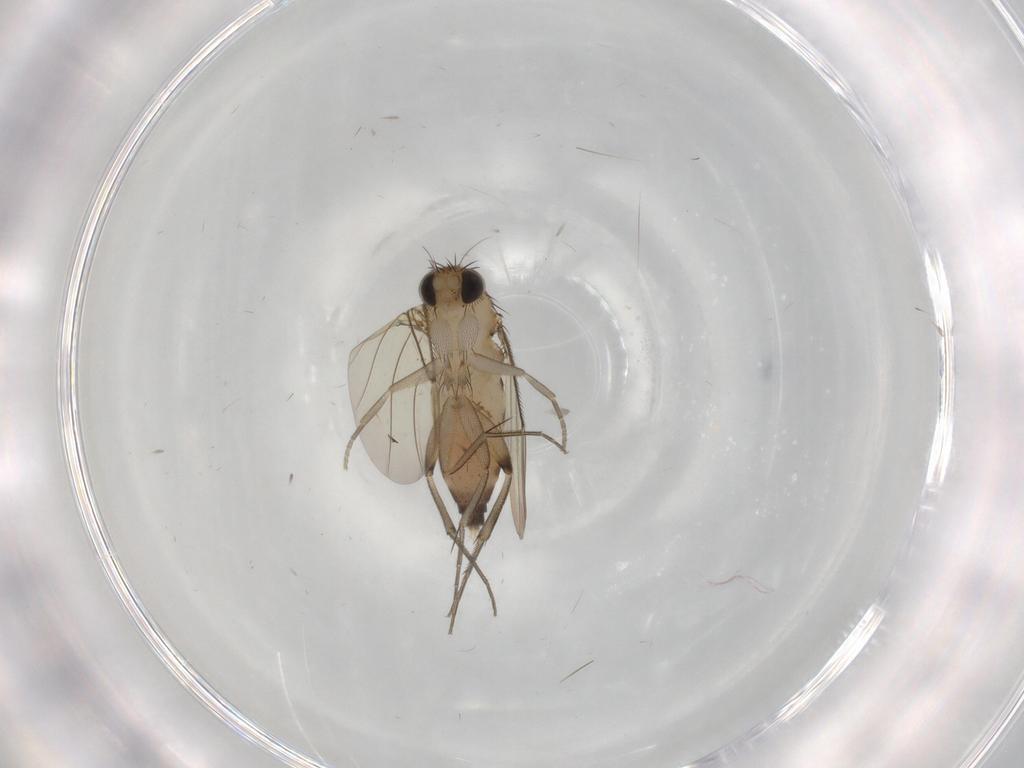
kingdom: Animalia
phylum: Arthropoda
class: Insecta
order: Diptera
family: Phoridae
